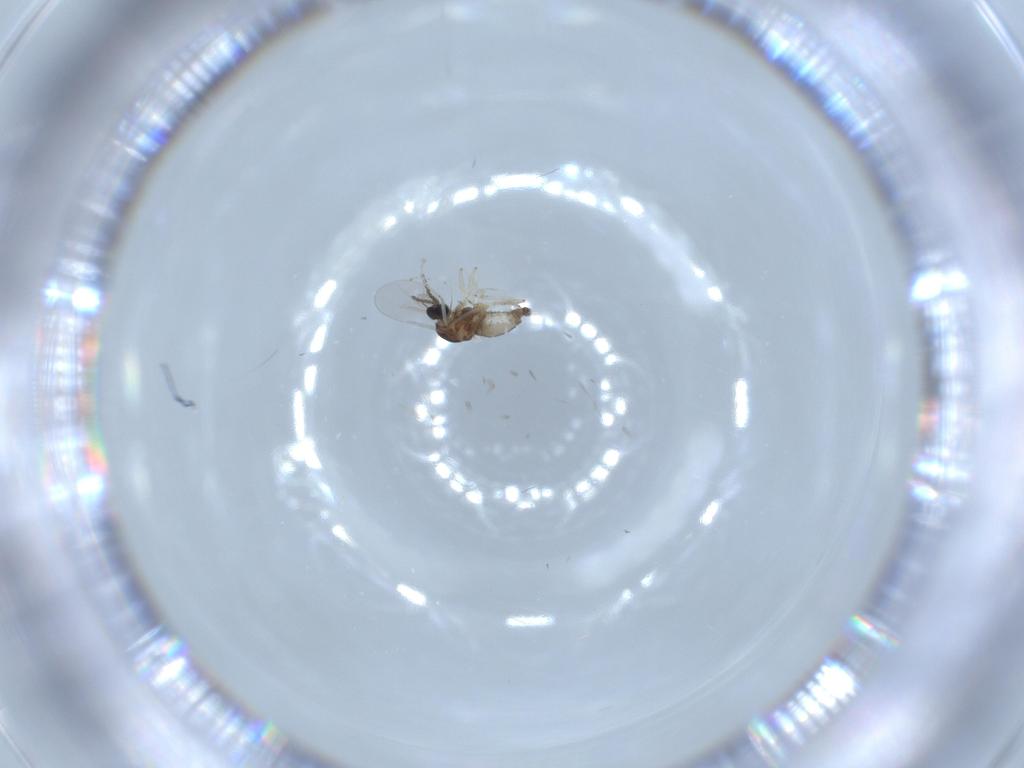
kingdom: Animalia
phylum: Arthropoda
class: Insecta
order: Diptera
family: Cecidomyiidae
